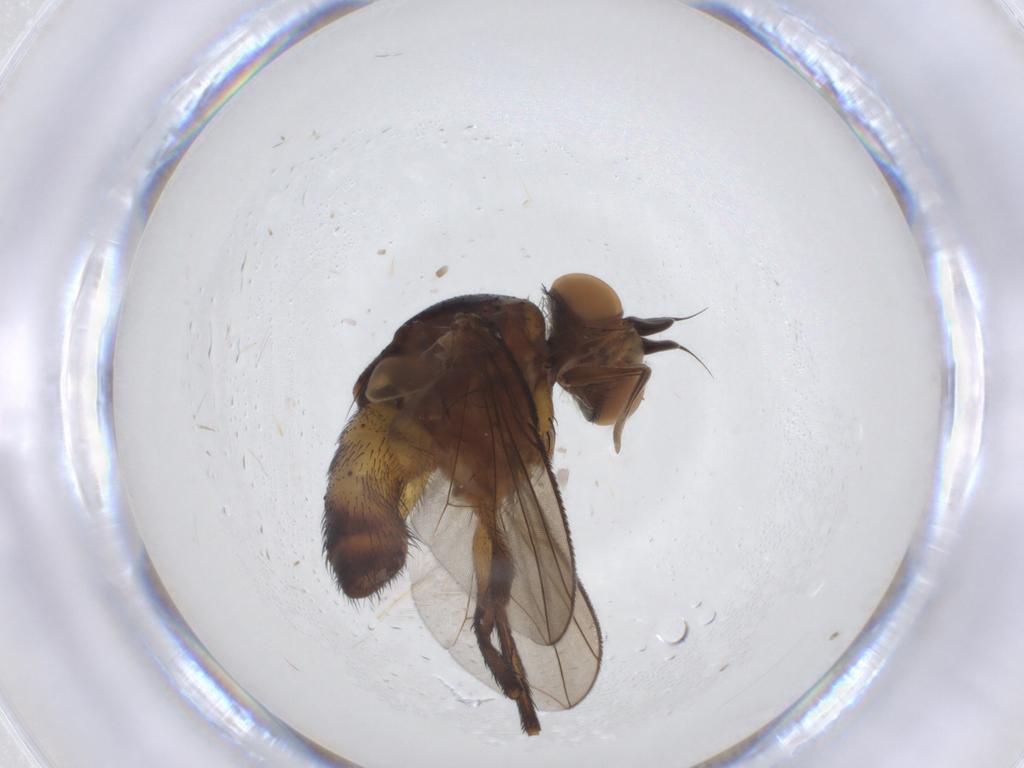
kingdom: Animalia
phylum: Arthropoda
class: Insecta
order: Diptera
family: Tachinidae
